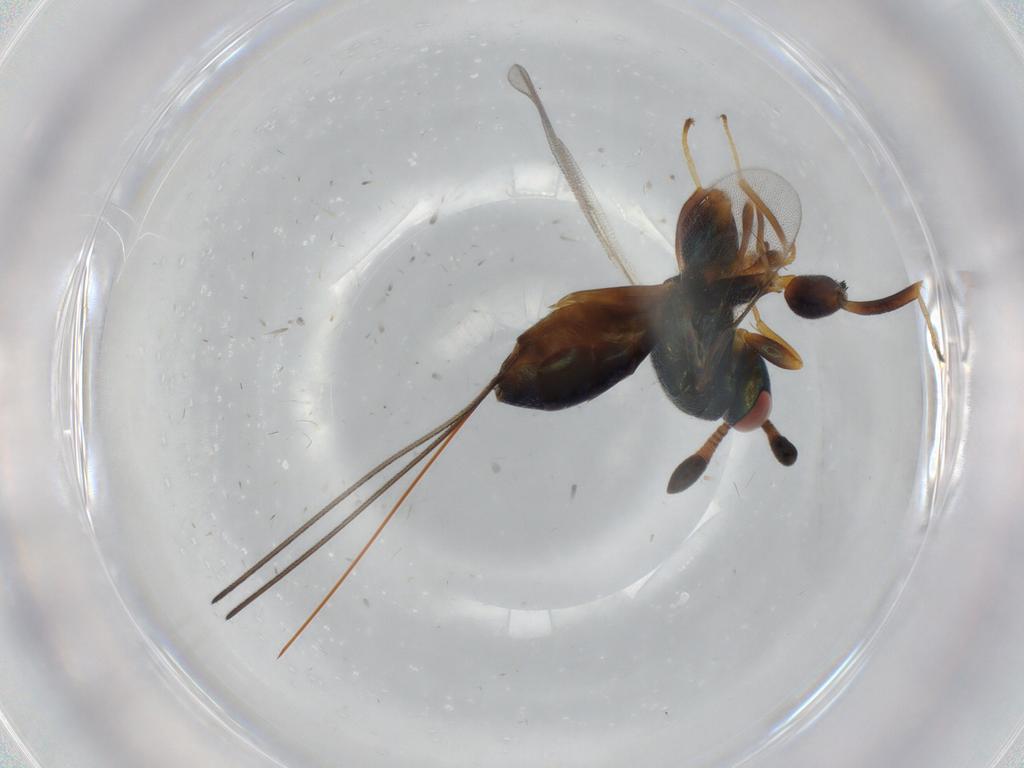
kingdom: Animalia
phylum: Arthropoda
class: Insecta
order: Hymenoptera
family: Torymidae
